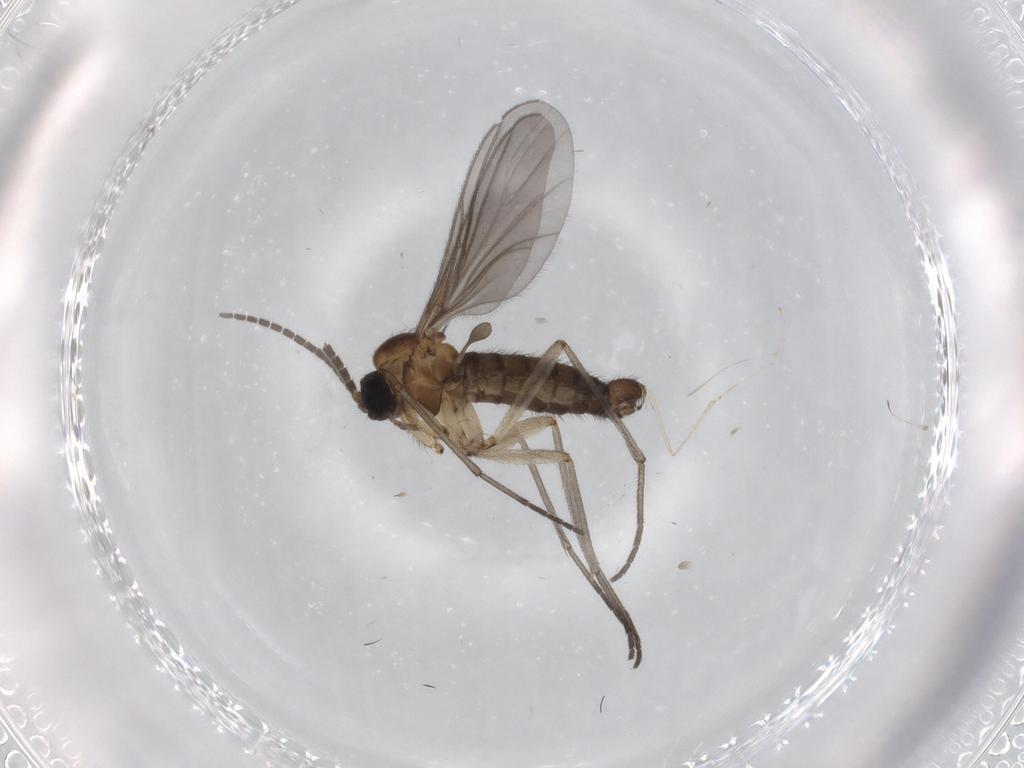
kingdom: Animalia
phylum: Arthropoda
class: Insecta
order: Diptera
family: Sciaridae
